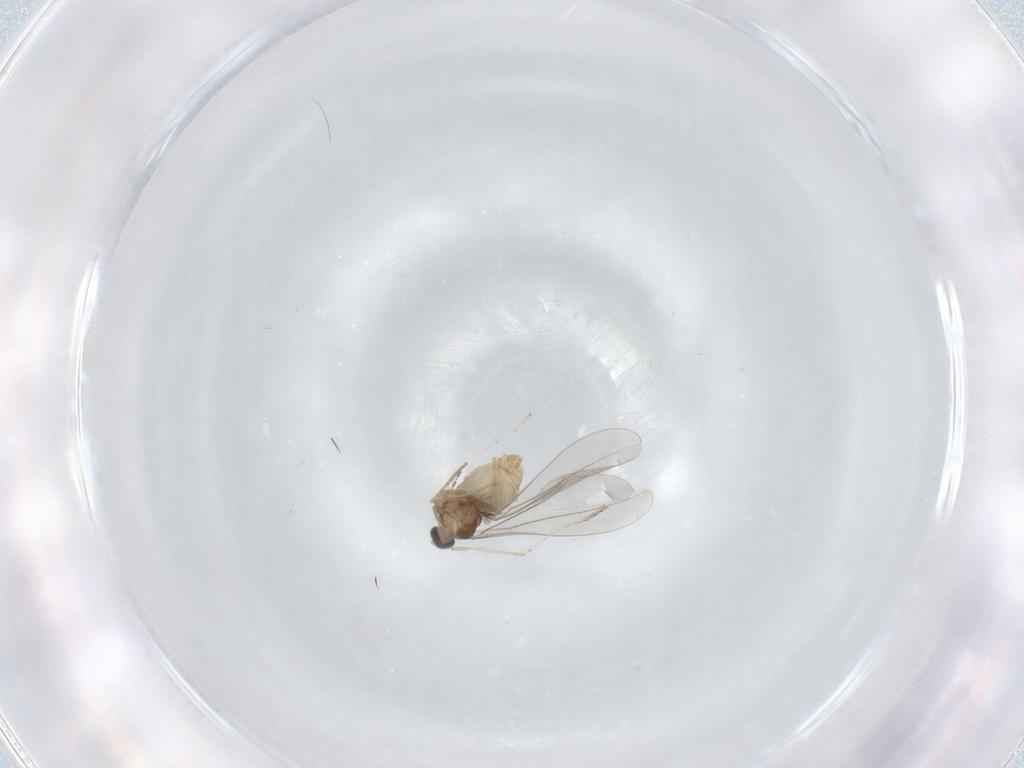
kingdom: Animalia
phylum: Arthropoda
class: Insecta
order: Diptera
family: Cecidomyiidae
